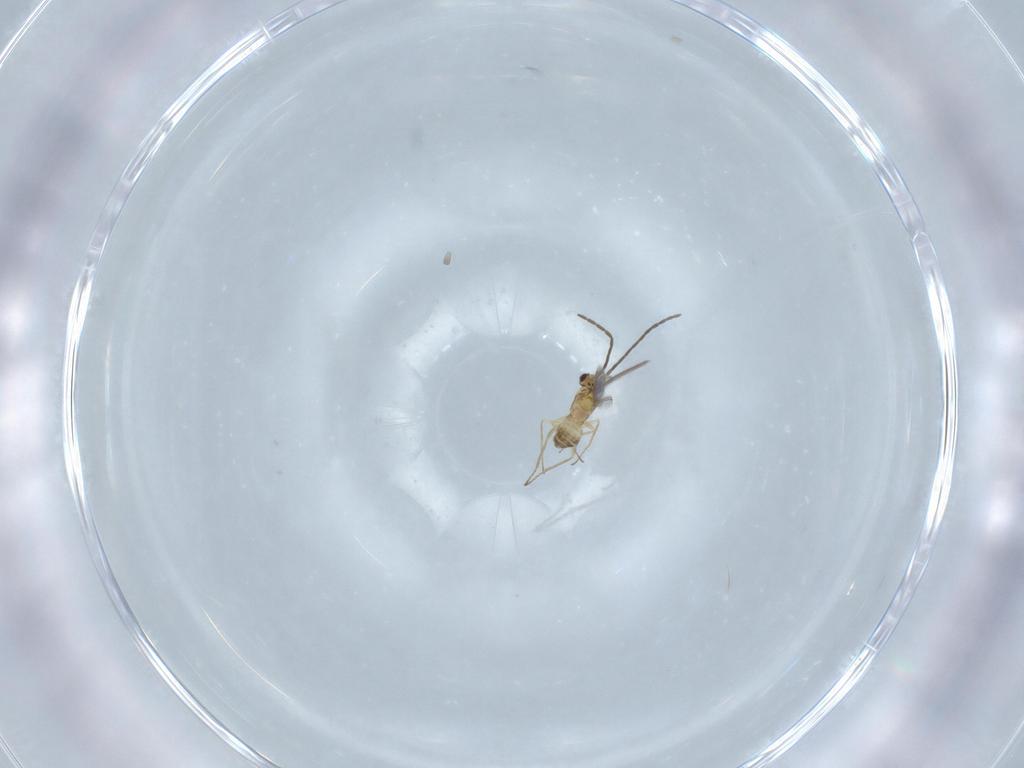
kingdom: Animalia
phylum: Arthropoda
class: Insecta
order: Hymenoptera
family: Mymaridae
